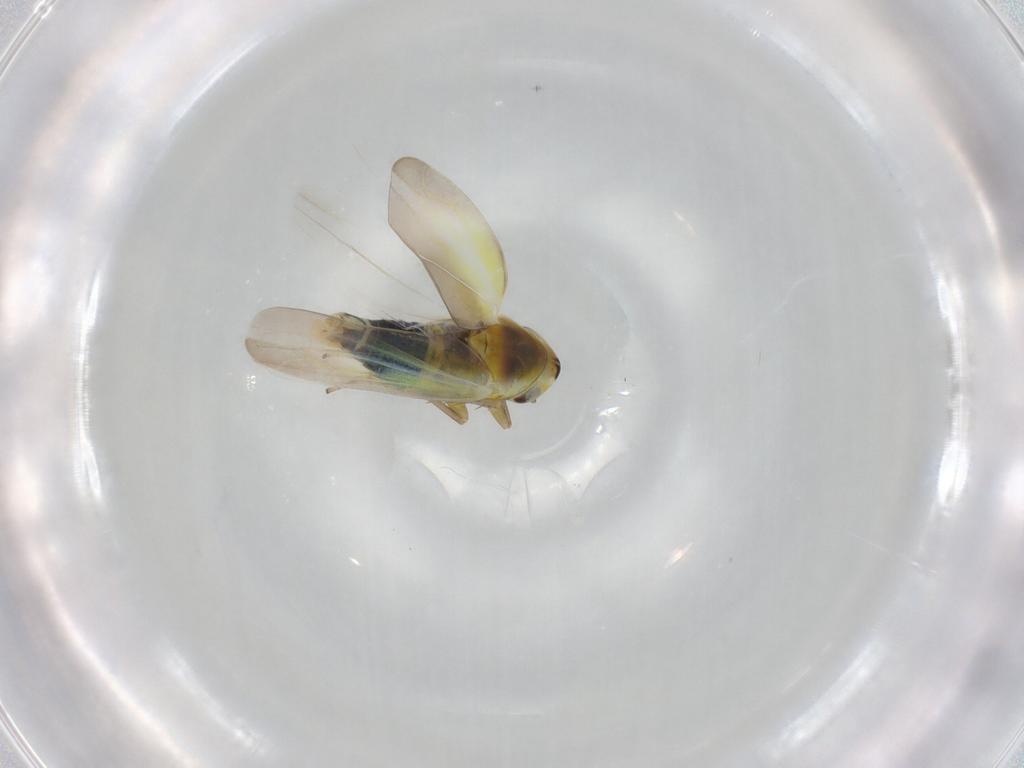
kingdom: Animalia
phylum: Arthropoda
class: Insecta
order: Hemiptera
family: Cicadellidae
